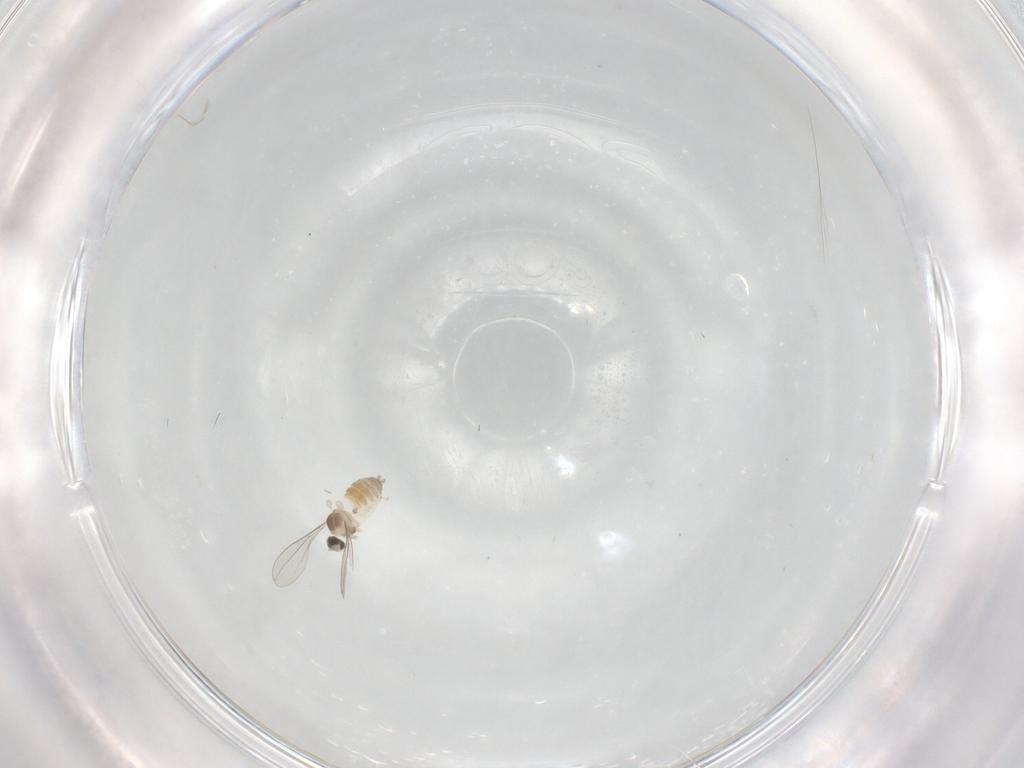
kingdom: Animalia
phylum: Arthropoda
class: Insecta
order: Diptera
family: Cecidomyiidae
